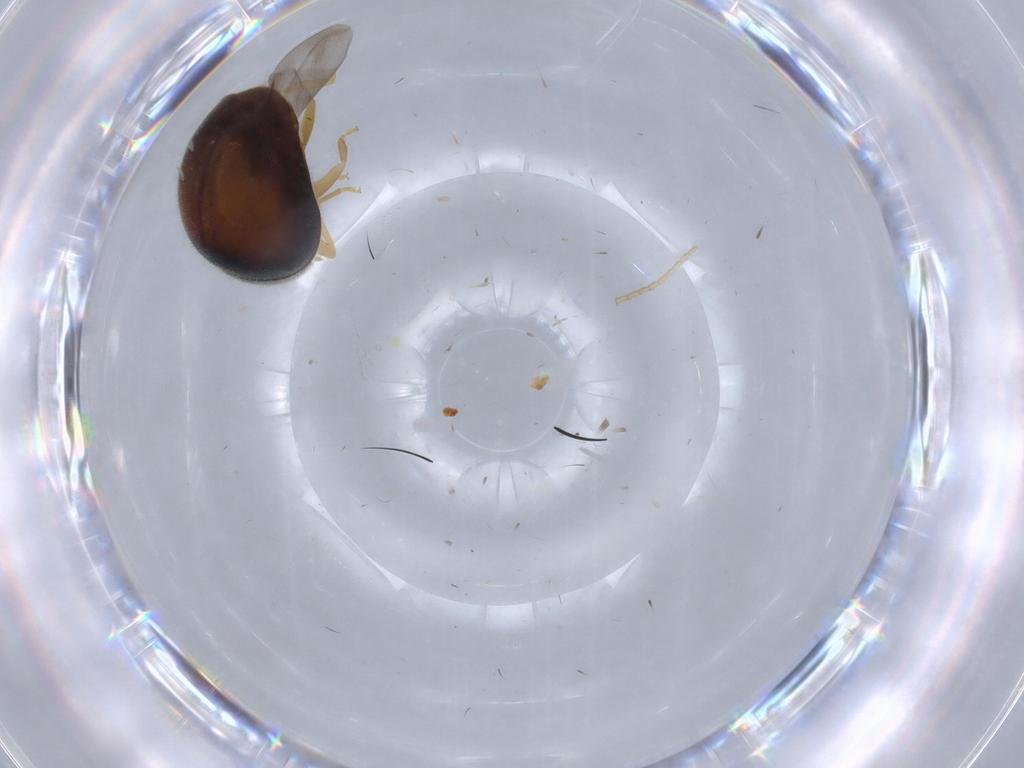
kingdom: Animalia
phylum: Arthropoda
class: Insecta
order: Coleoptera
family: Coccinellidae
